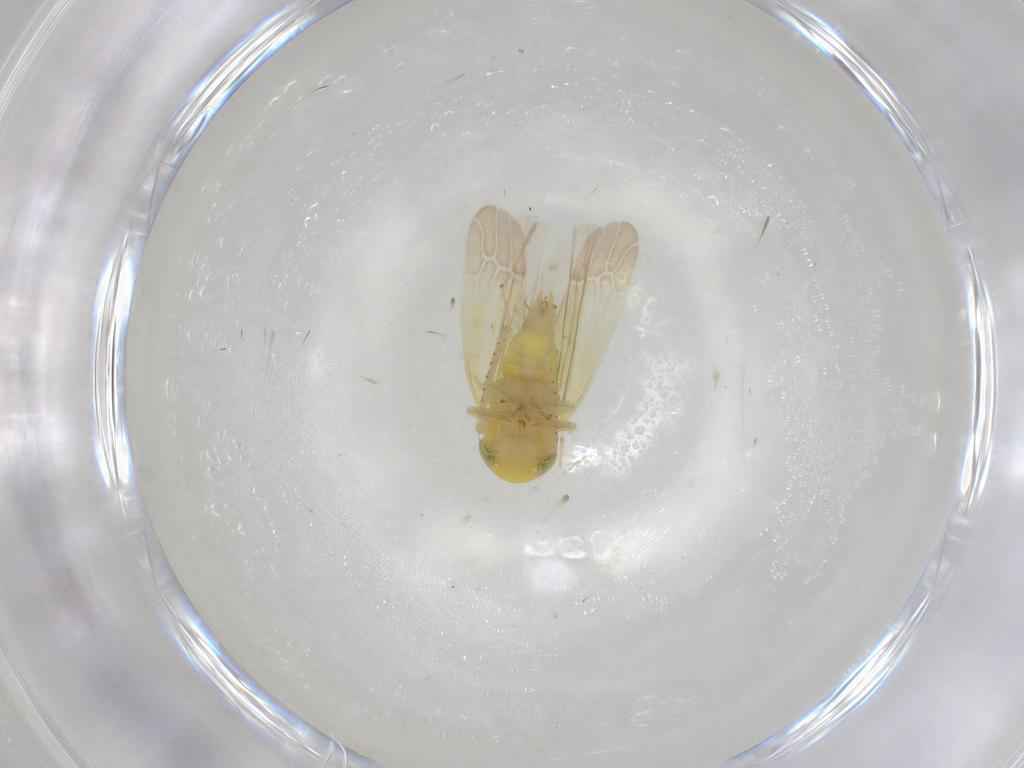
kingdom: Animalia
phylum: Arthropoda
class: Insecta
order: Hemiptera
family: Cicadellidae
